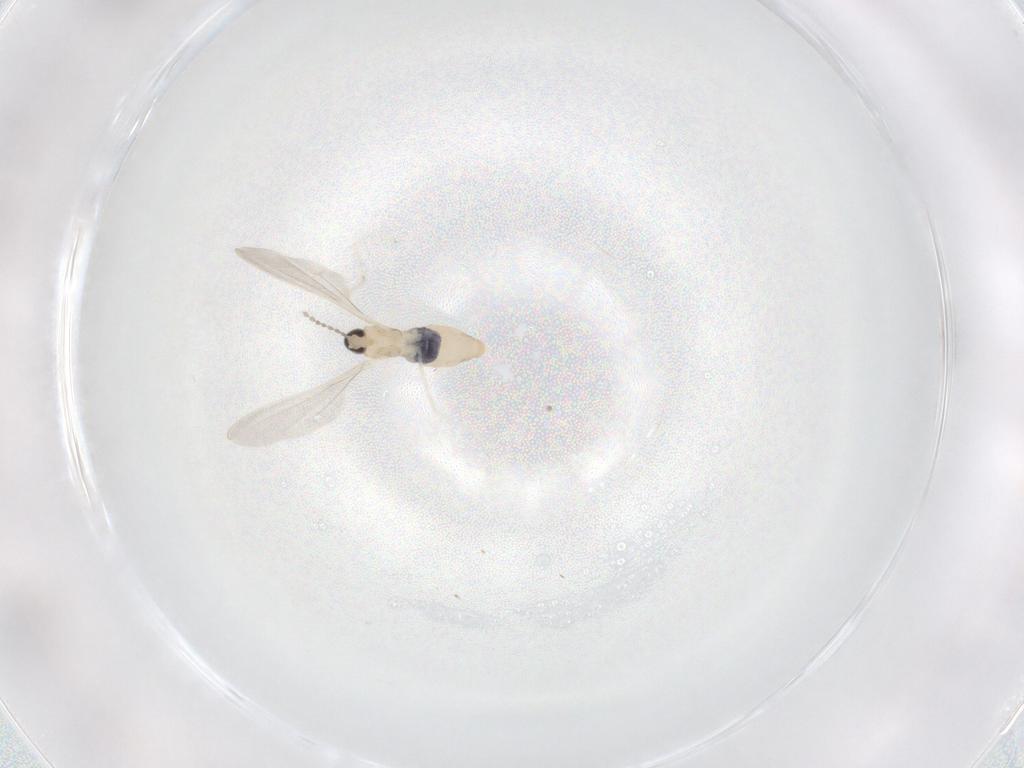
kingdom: Animalia
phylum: Arthropoda
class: Insecta
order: Diptera
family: Cecidomyiidae
